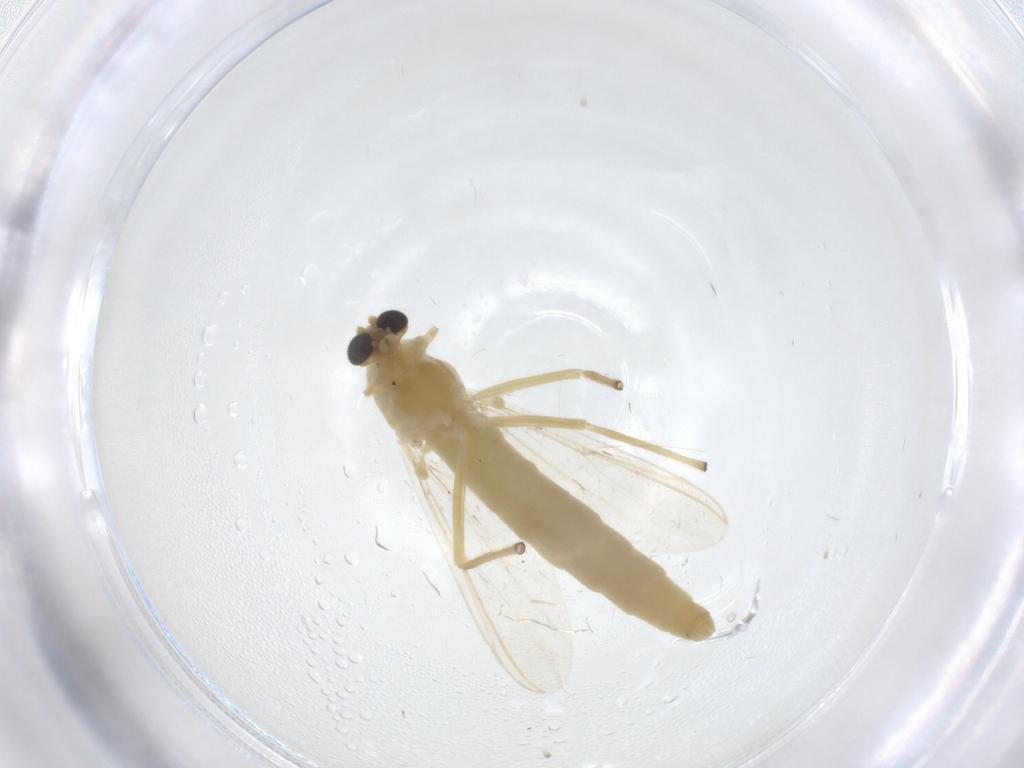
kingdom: Animalia
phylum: Arthropoda
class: Insecta
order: Diptera
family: Chironomidae
